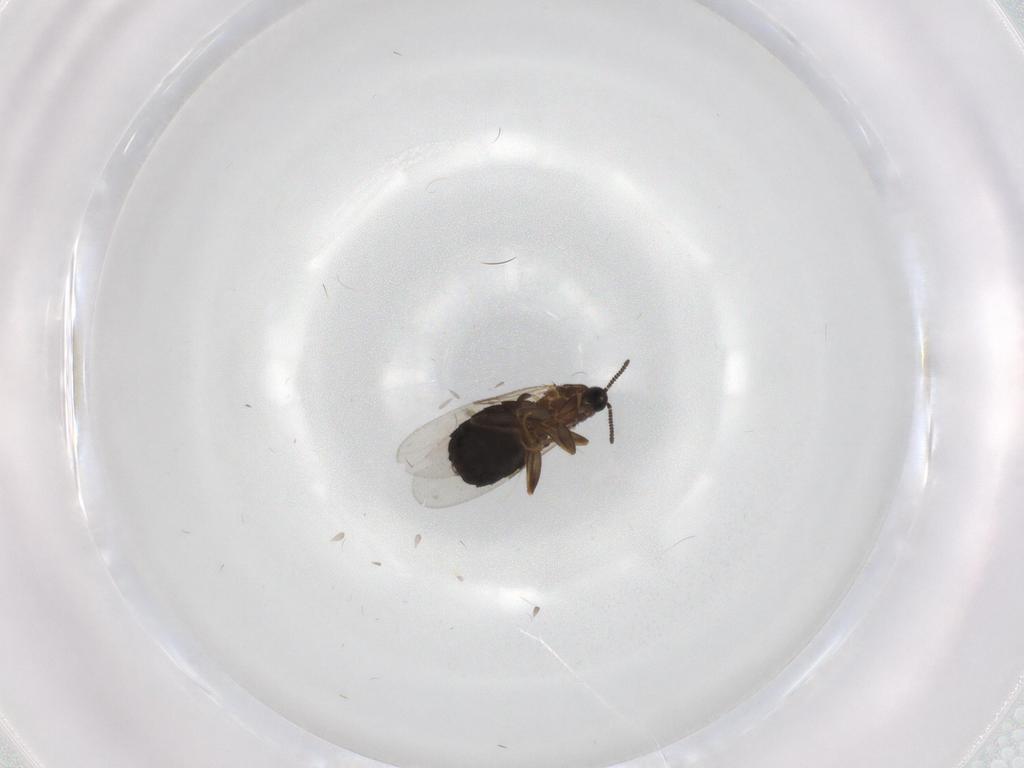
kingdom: Animalia
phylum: Arthropoda
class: Insecta
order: Diptera
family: Scatopsidae
